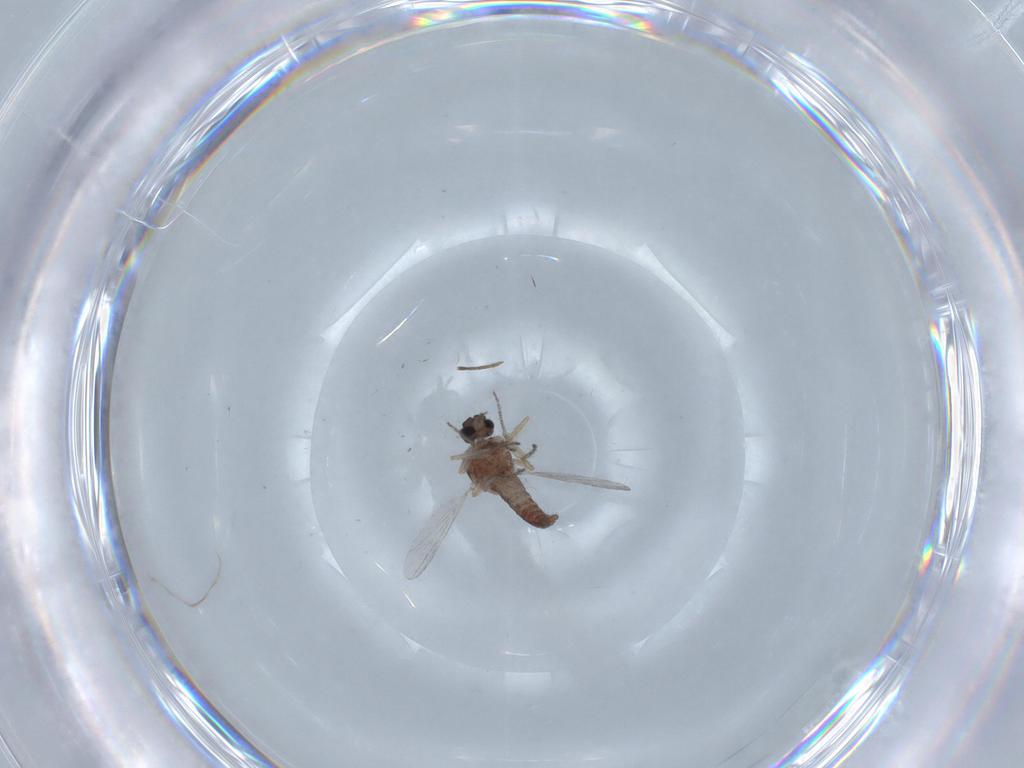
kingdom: Animalia
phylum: Arthropoda
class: Insecta
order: Diptera
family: Ceratopogonidae
